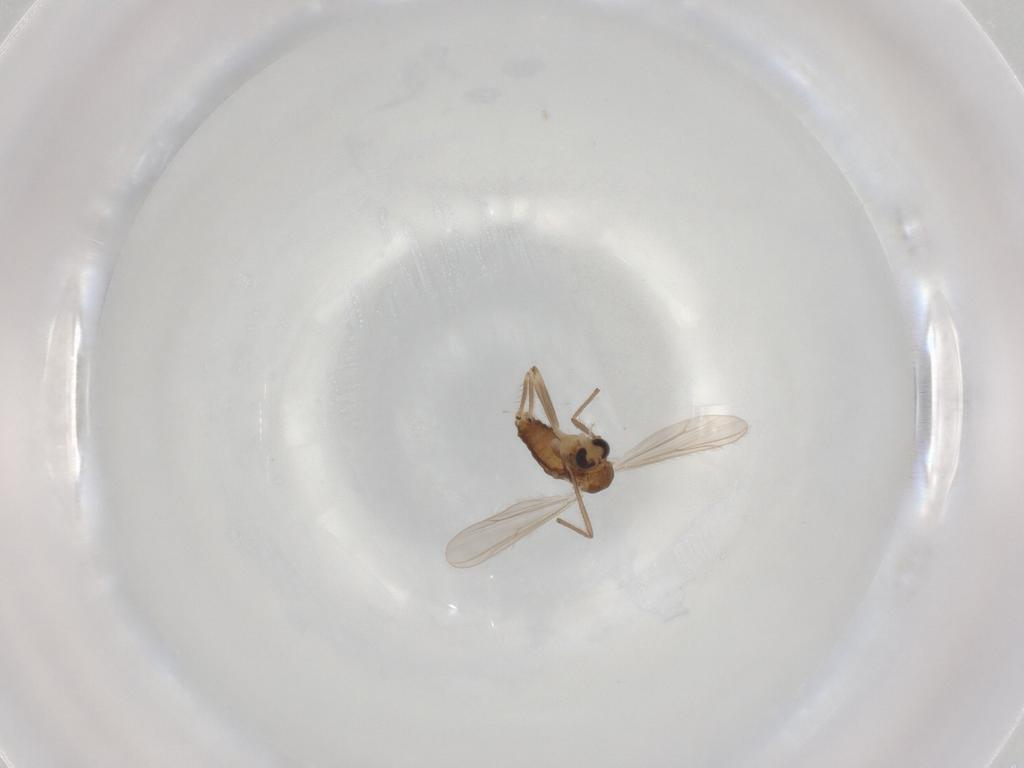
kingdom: Animalia
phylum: Arthropoda
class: Insecta
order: Diptera
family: Chironomidae
